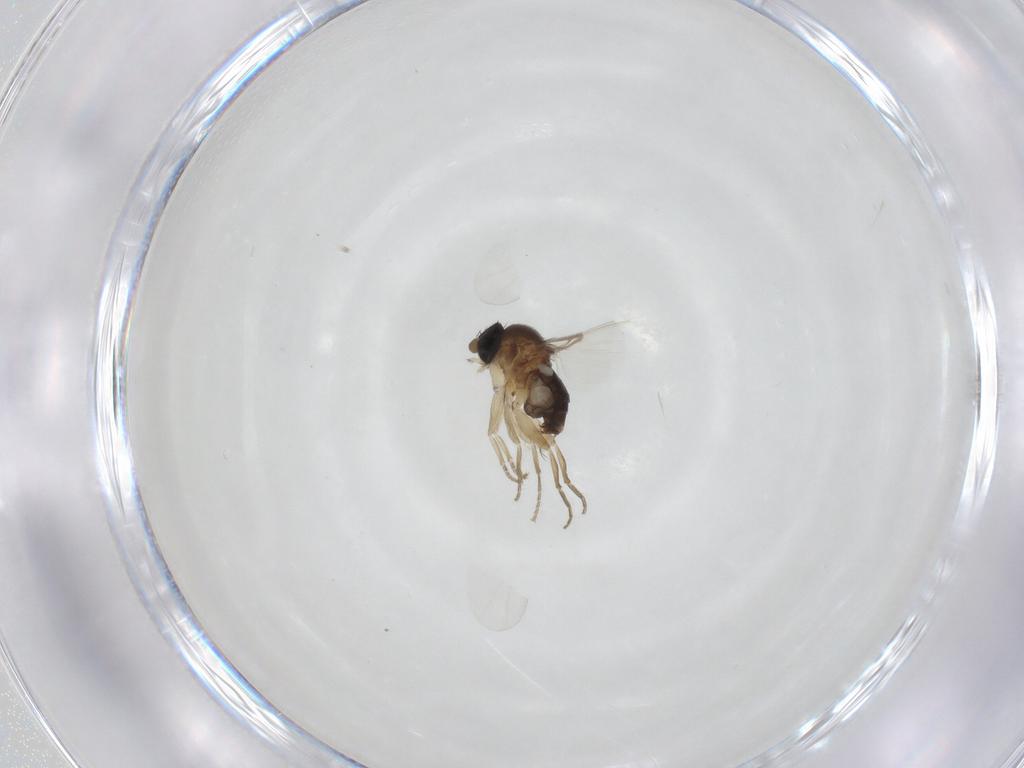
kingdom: Animalia
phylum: Arthropoda
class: Insecta
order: Diptera
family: Phoridae
